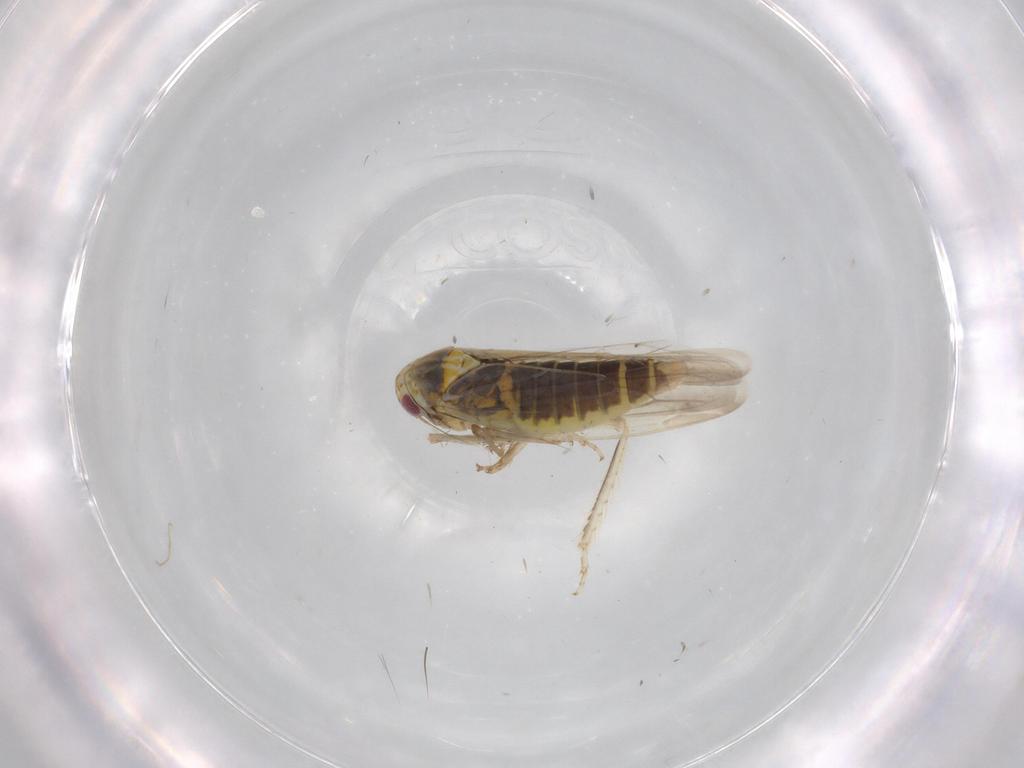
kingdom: Animalia
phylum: Arthropoda
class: Insecta
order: Hemiptera
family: Cicadellidae
